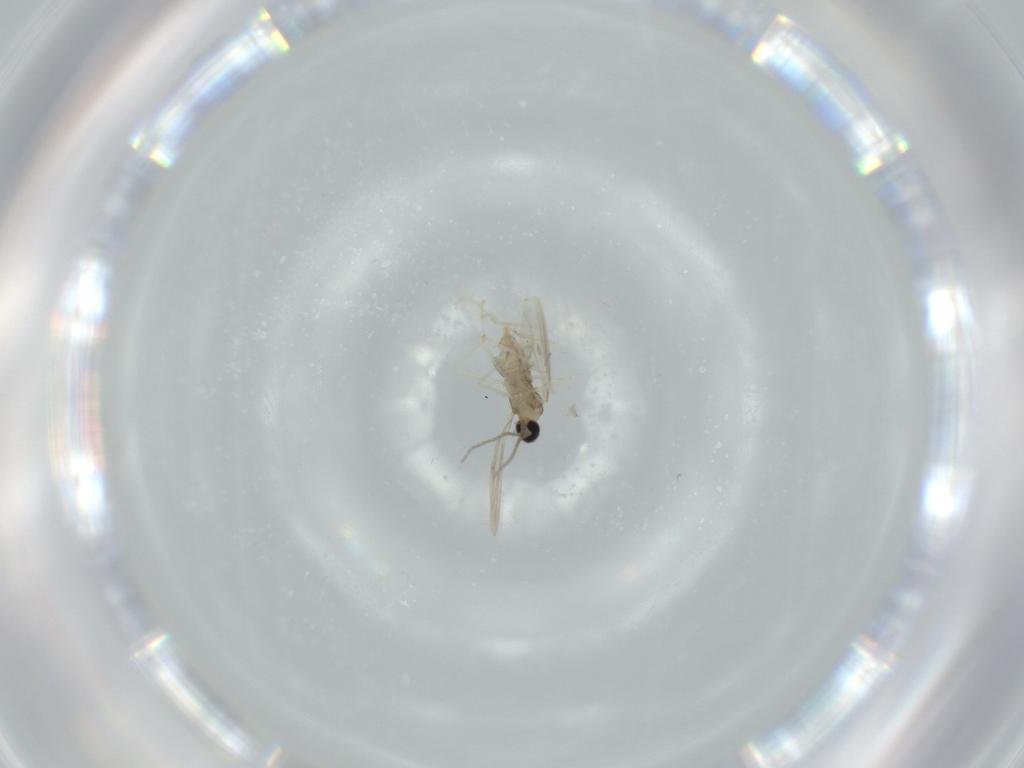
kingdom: Animalia
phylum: Arthropoda
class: Insecta
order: Diptera
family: Cecidomyiidae
